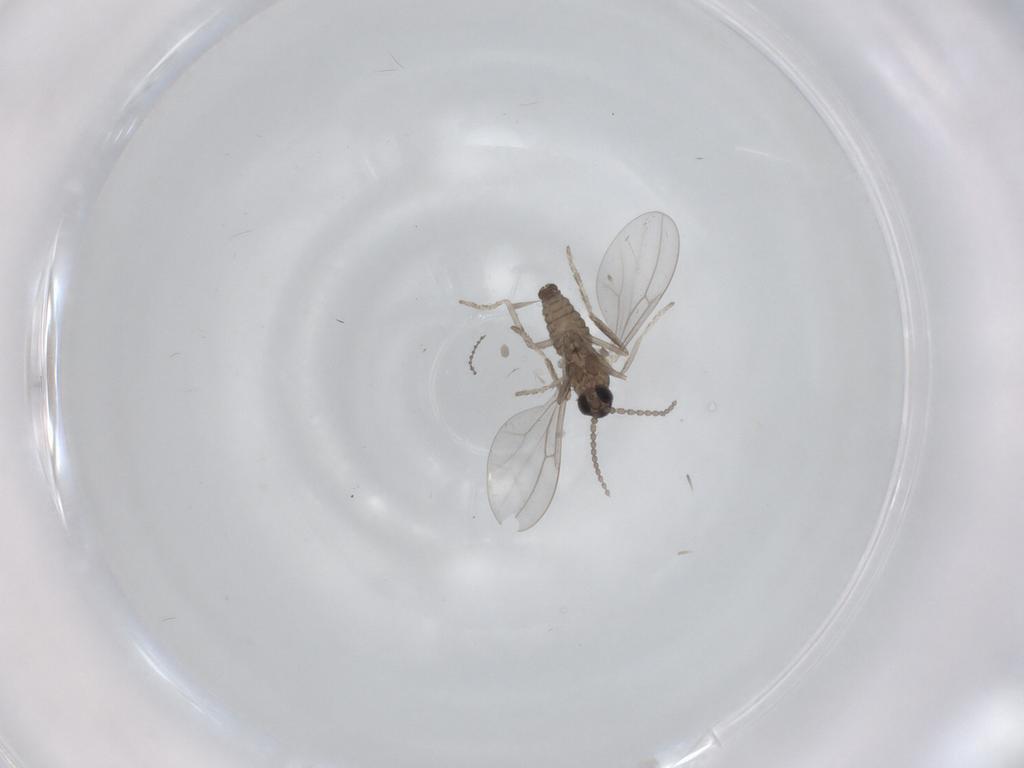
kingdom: Animalia
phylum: Arthropoda
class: Insecta
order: Diptera
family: Cecidomyiidae
